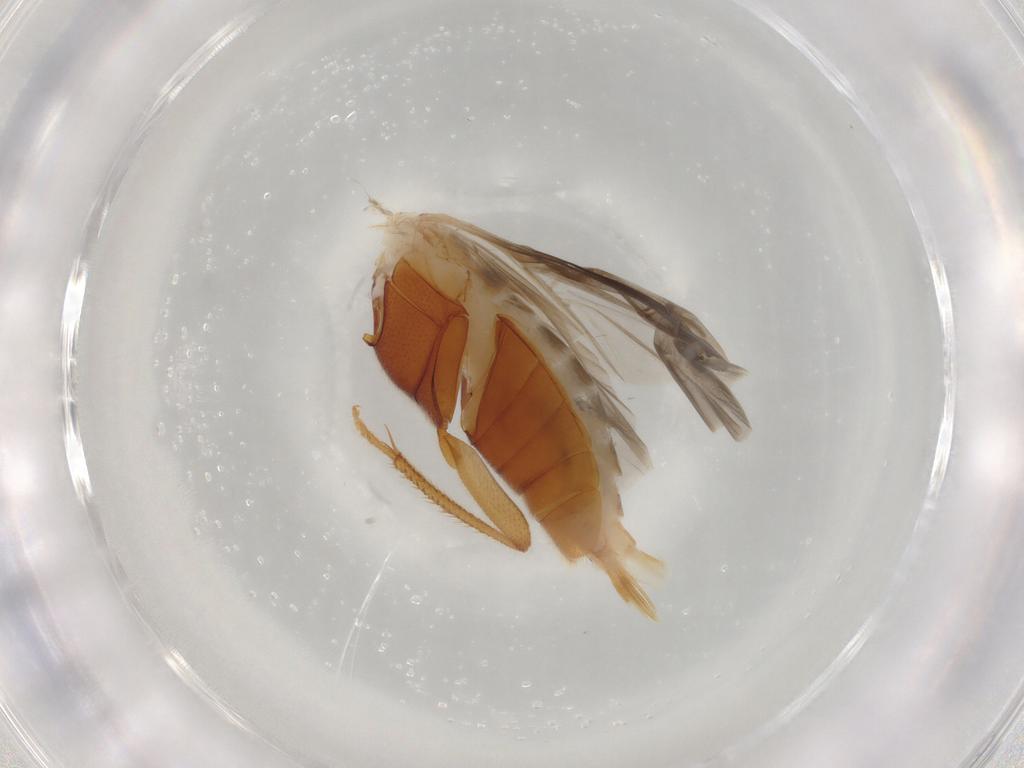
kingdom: Animalia
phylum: Arthropoda
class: Insecta
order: Coleoptera
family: Ptilodactylidae
